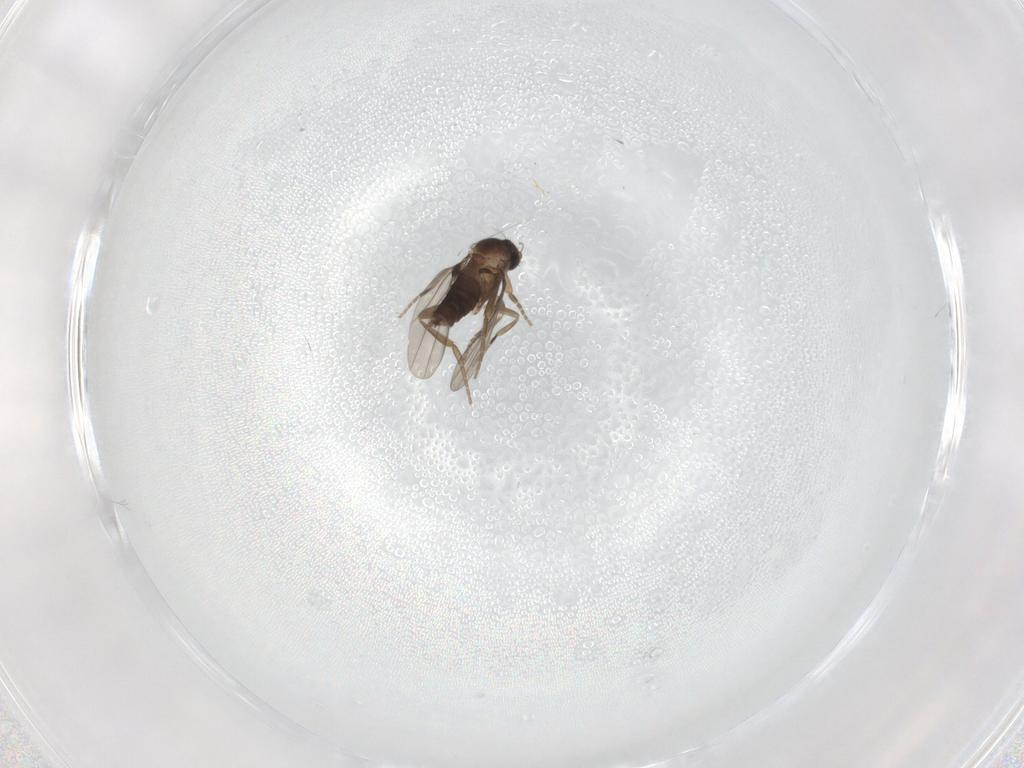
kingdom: Animalia
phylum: Arthropoda
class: Insecta
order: Diptera
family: Phoridae
